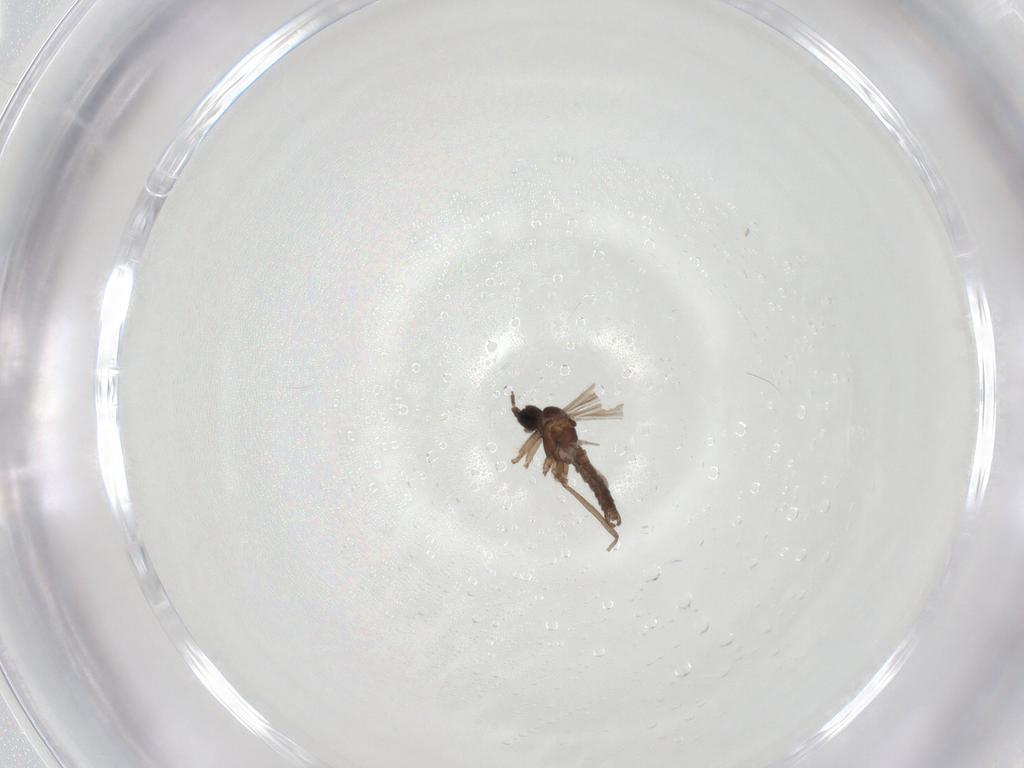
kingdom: Animalia
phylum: Arthropoda
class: Insecta
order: Diptera
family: Sciaridae
